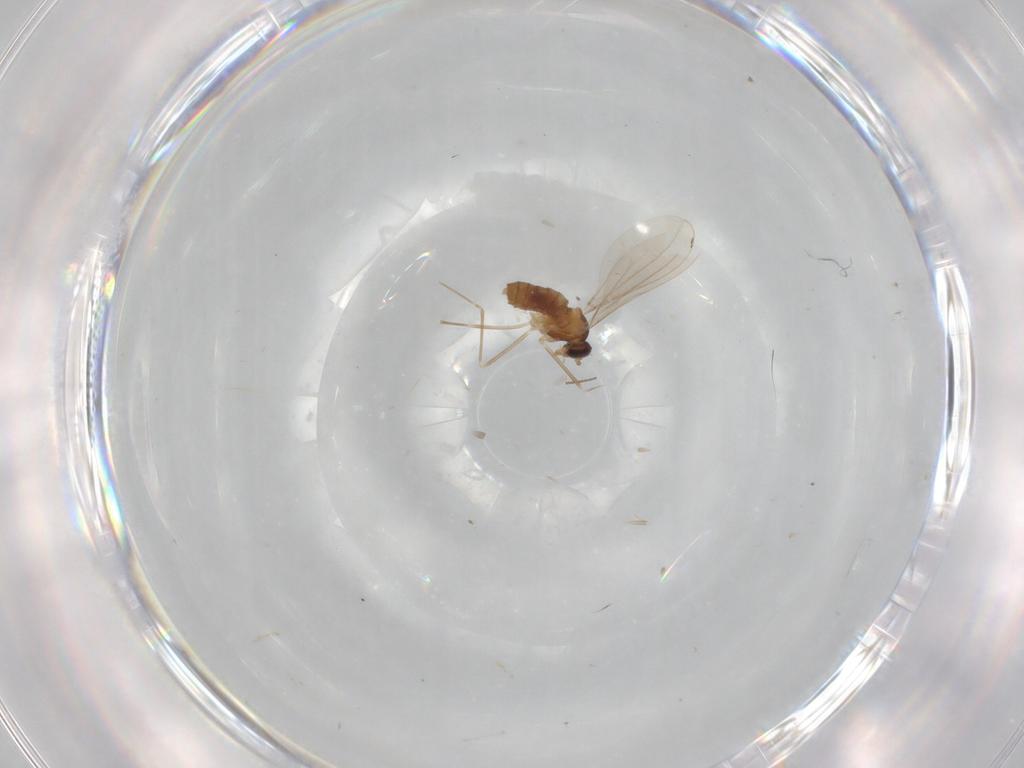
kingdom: Animalia
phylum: Arthropoda
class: Insecta
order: Diptera
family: Cecidomyiidae
